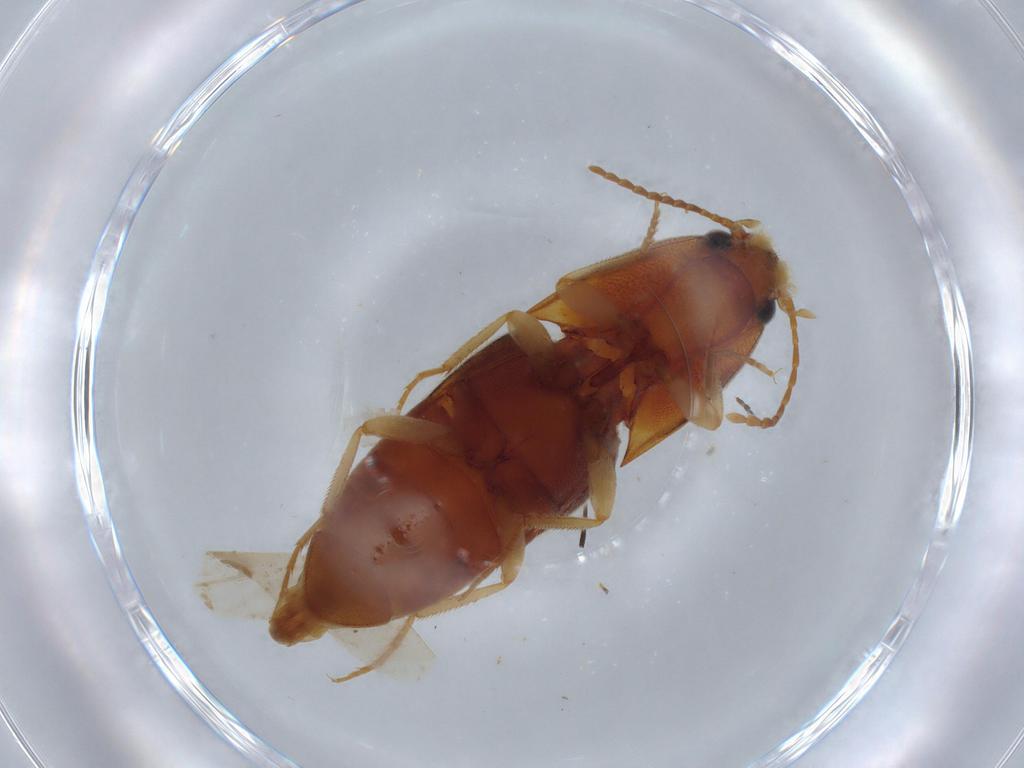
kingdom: Animalia
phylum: Arthropoda
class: Insecta
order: Coleoptera
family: Elateridae
